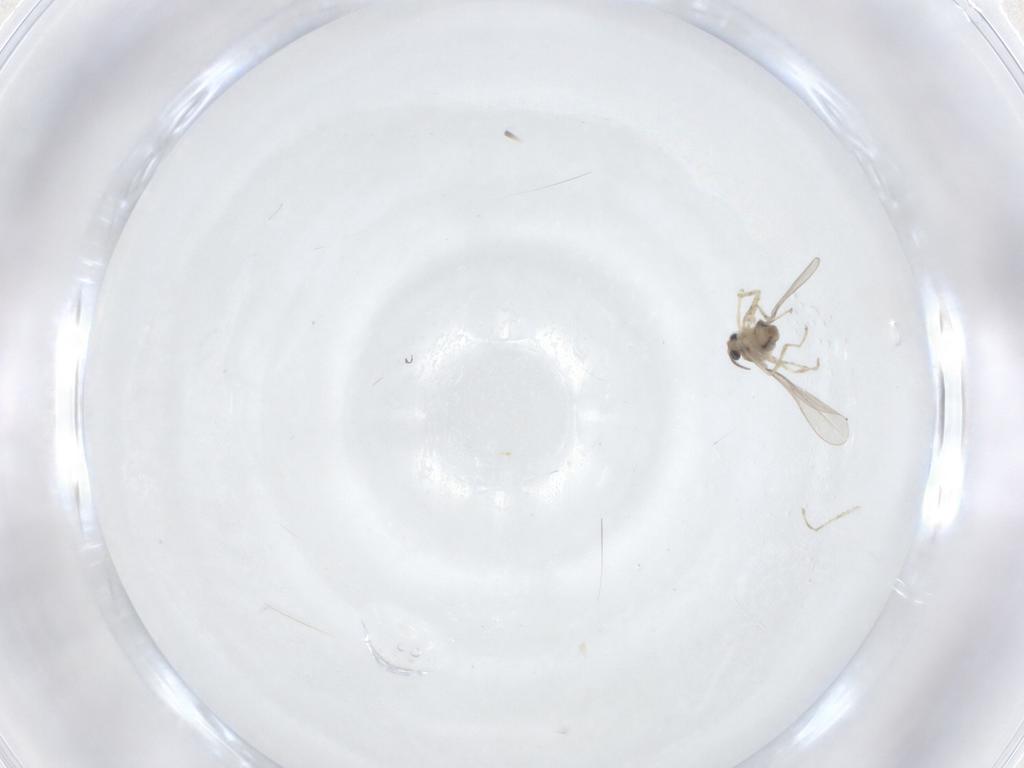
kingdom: Animalia
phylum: Arthropoda
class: Insecta
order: Diptera
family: Cecidomyiidae
